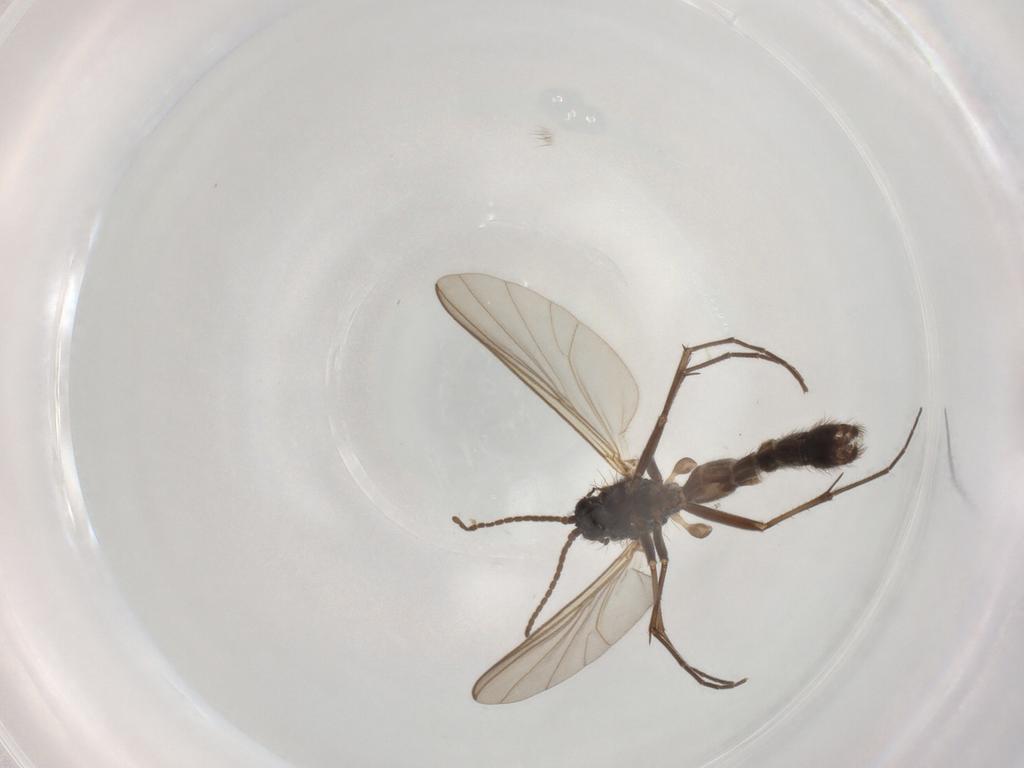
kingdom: Animalia
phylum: Arthropoda
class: Insecta
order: Diptera
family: Mycetophilidae
